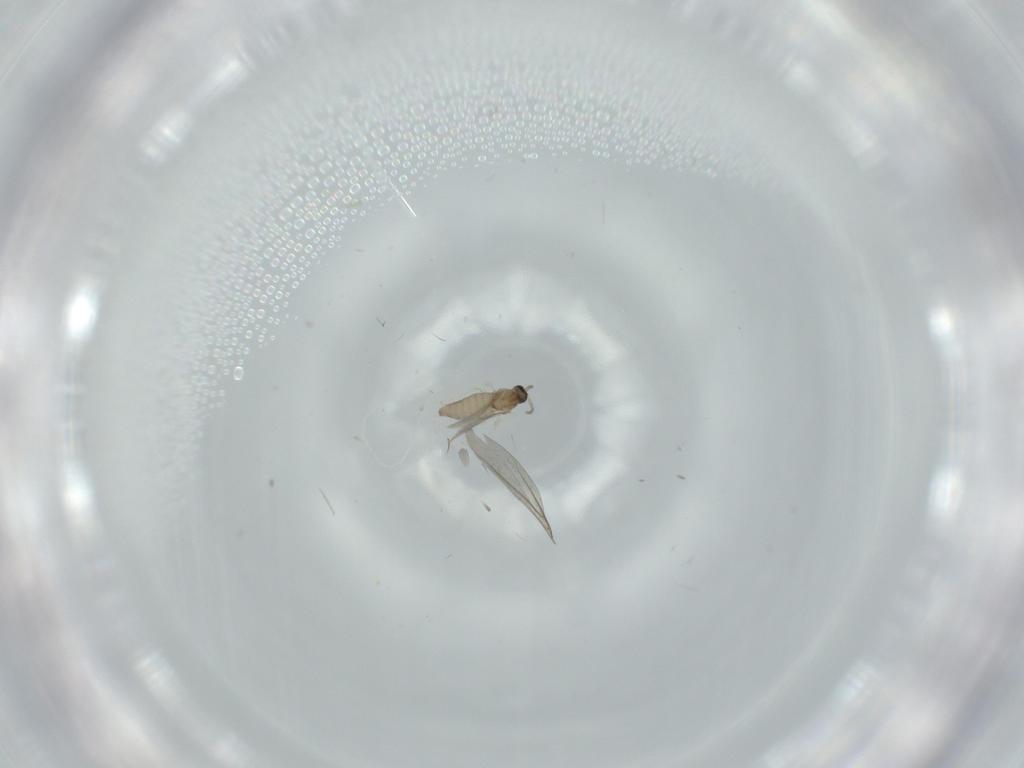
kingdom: Animalia
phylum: Arthropoda
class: Insecta
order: Diptera
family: Cecidomyiidae
